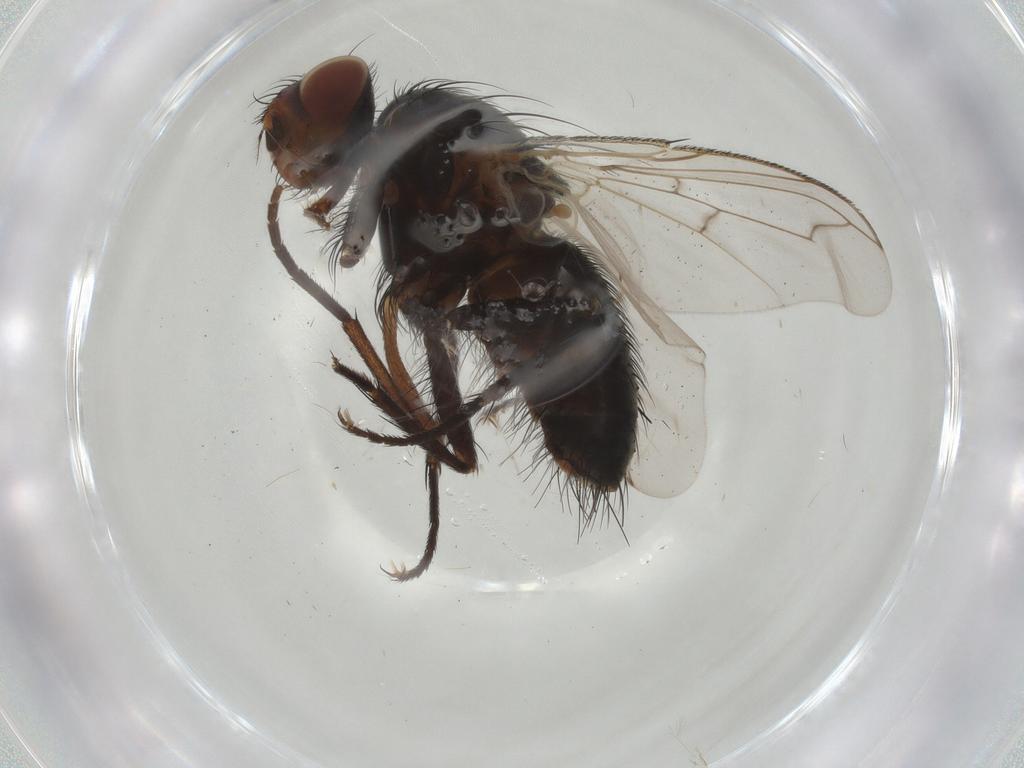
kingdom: Animalia
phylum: Arthropoda
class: Insecta
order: Diptera
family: Tachinidae
